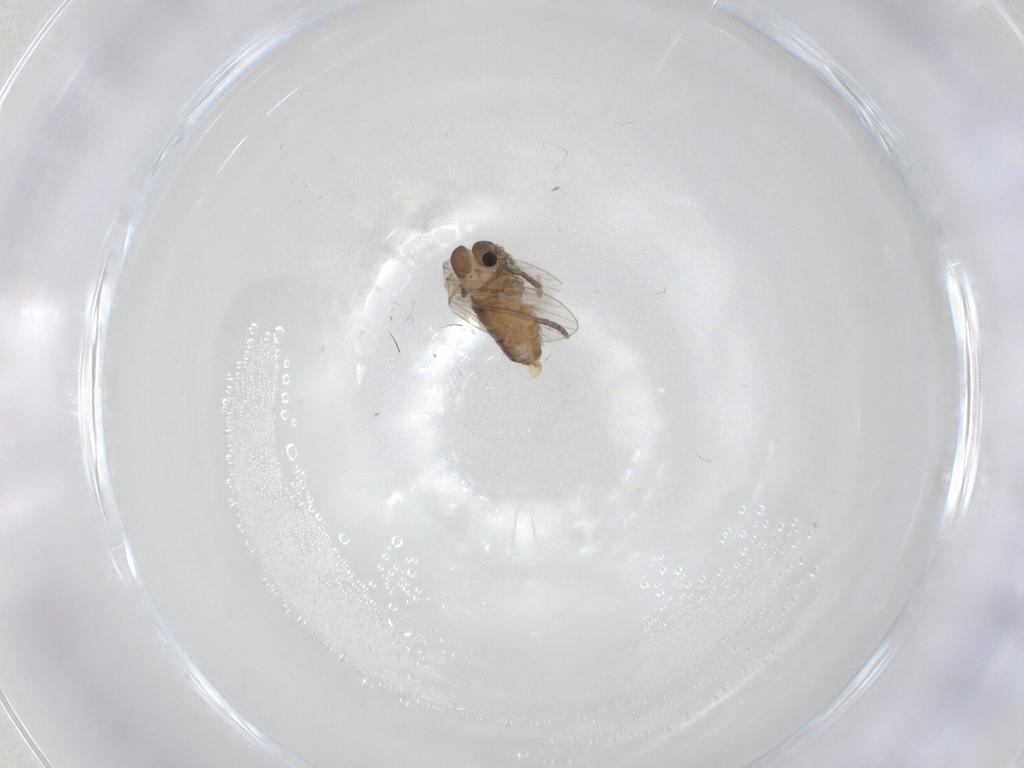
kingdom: Animalia
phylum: Arthropoda
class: Insecta
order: Diptera
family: Psychodidae
